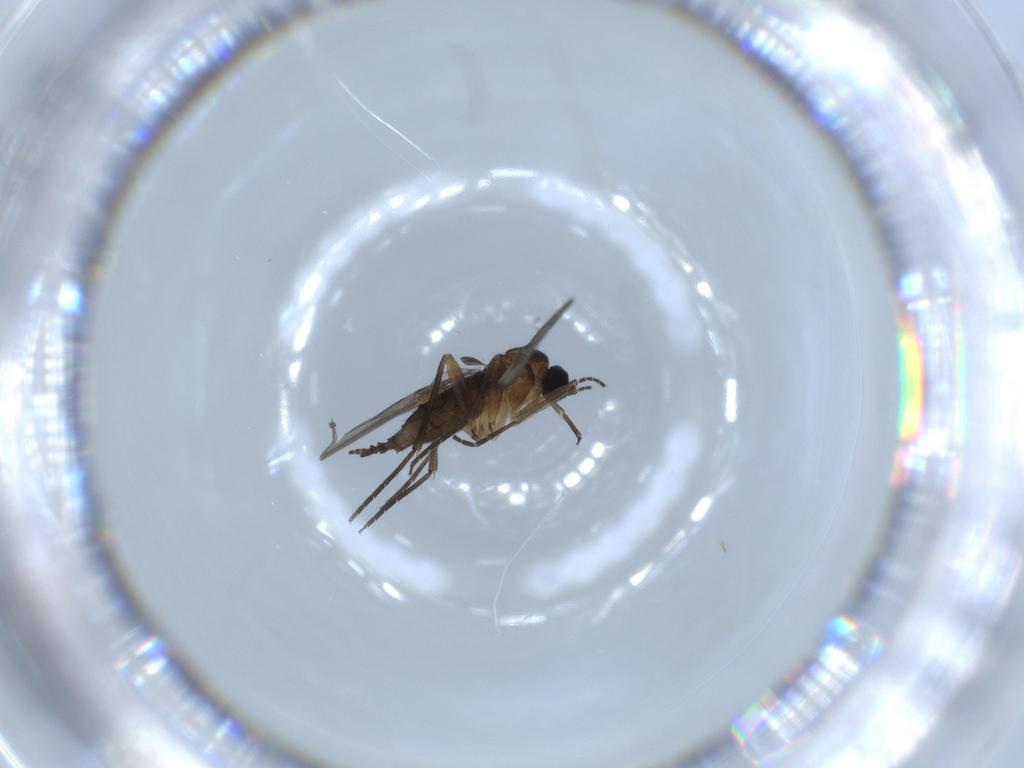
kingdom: Animalia
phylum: Arthropoda
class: Insecta
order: Diptera
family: Sciaridae
